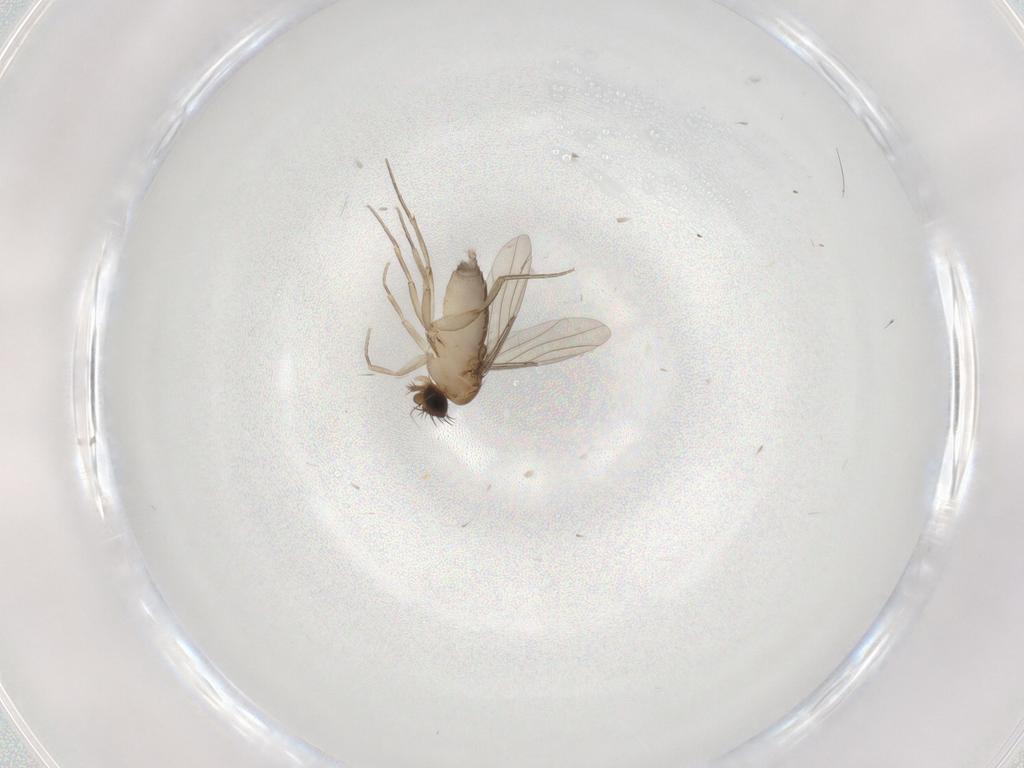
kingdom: Animalia
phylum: Arthropoda
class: Insecta
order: Diptera
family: Phoridae
